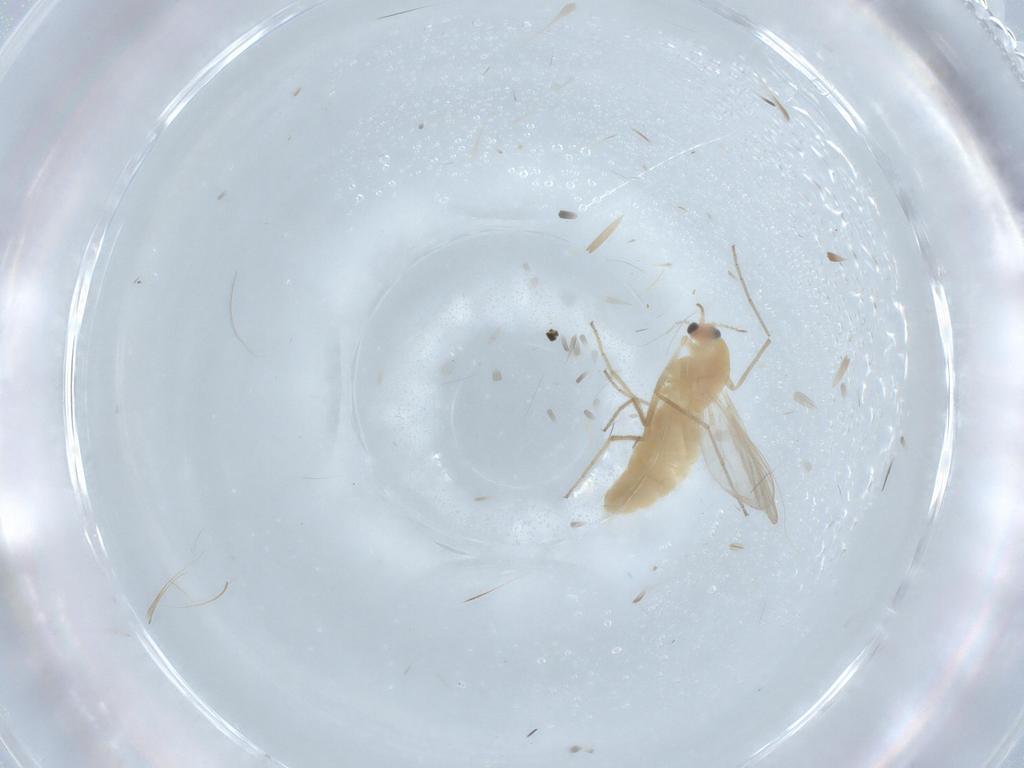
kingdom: Animalia
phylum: Arthropoda
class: Insecta
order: Diptera
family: Chironomidae
